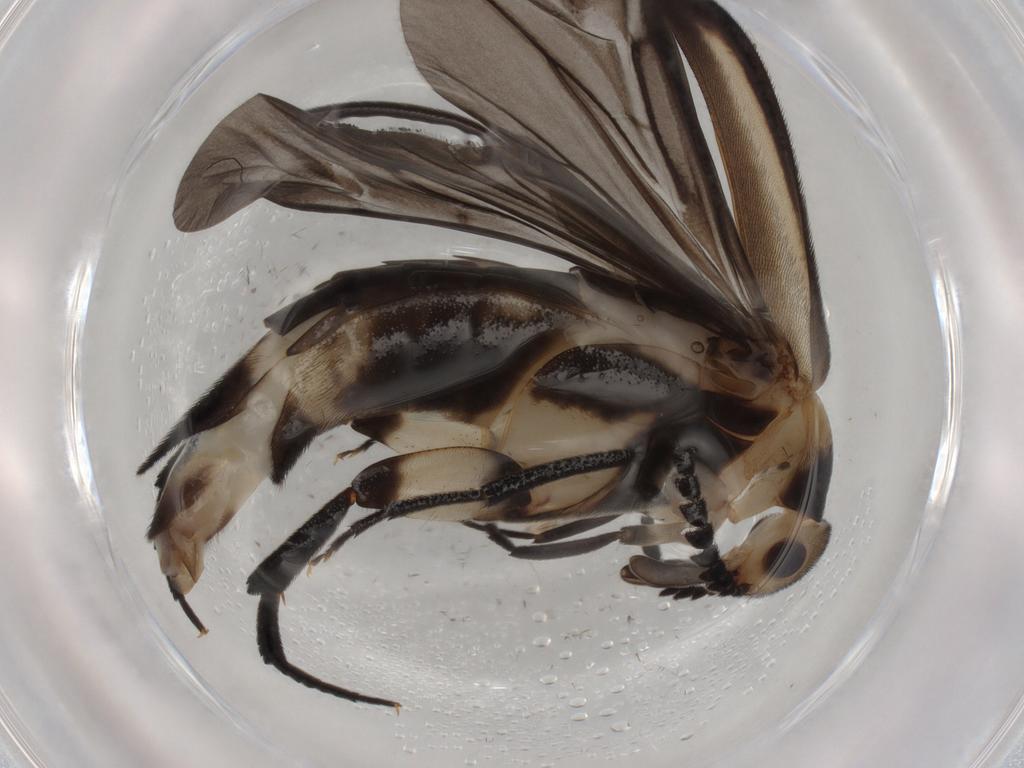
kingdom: Animalia
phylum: Arthropoda
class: Insecta
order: Coleoptera
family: Mordellidae
